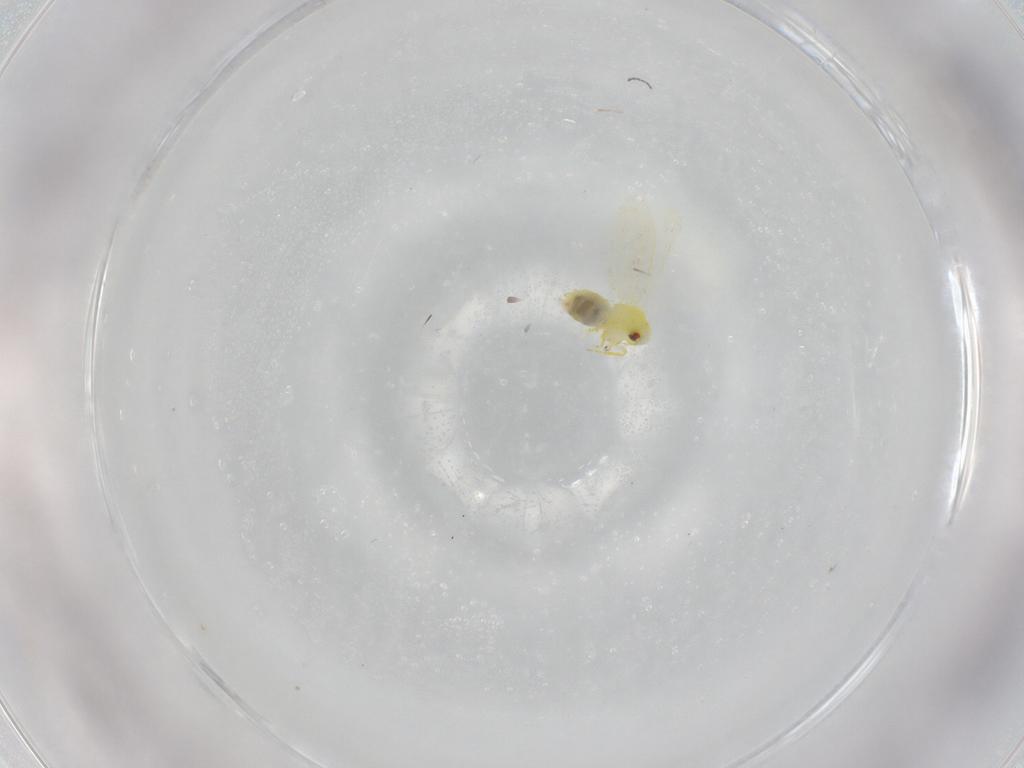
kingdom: Animalia
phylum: Arthropoda
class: Insecta
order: Hemiptera
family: Aleyrodidae
